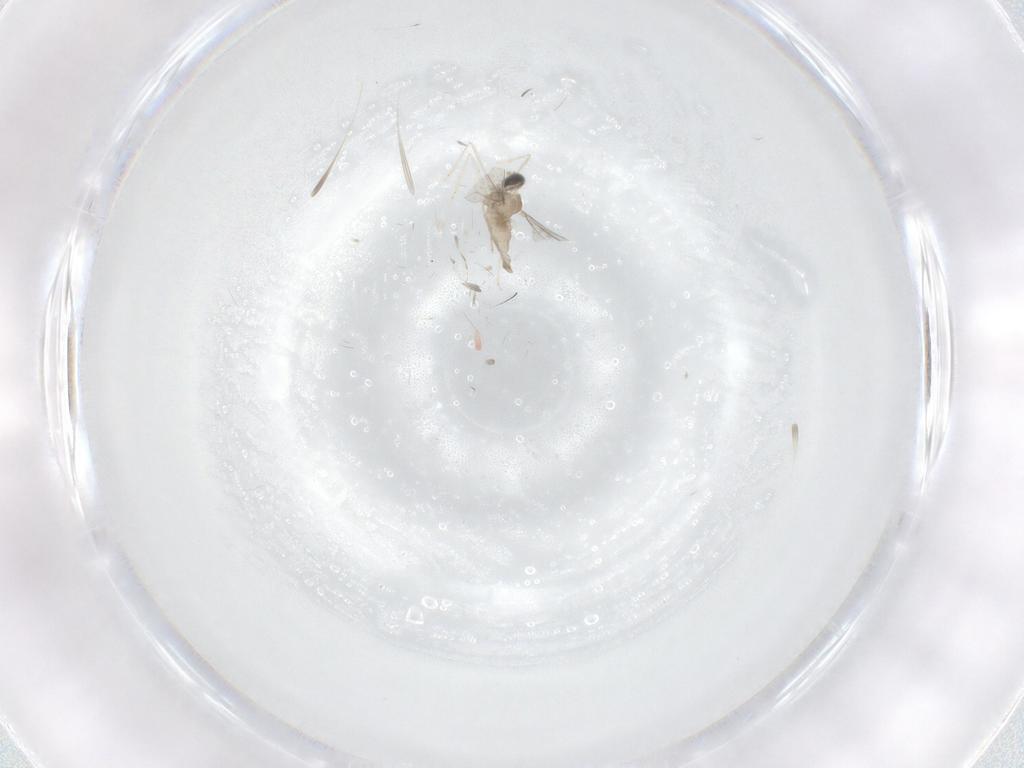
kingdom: Animalia
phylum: Arthropoda
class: Insecta
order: Diptera
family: Cecidomyiidae
